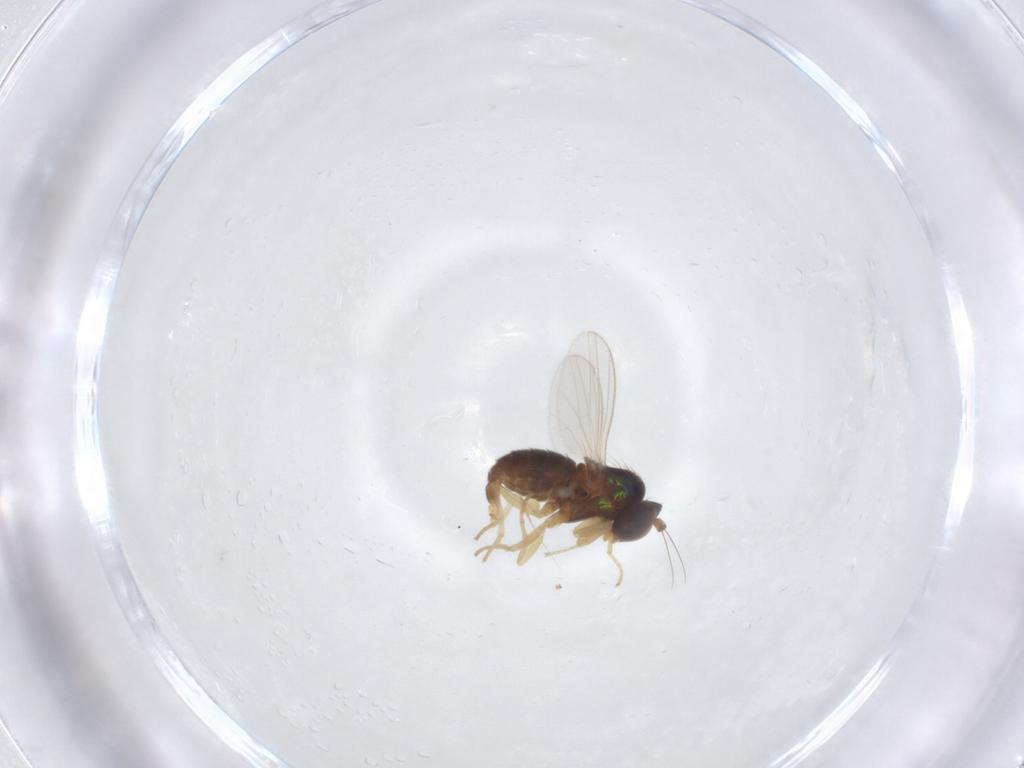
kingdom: Animalia
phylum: Arthropoda
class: Insecta
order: Diptera
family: Dolichopodidae
